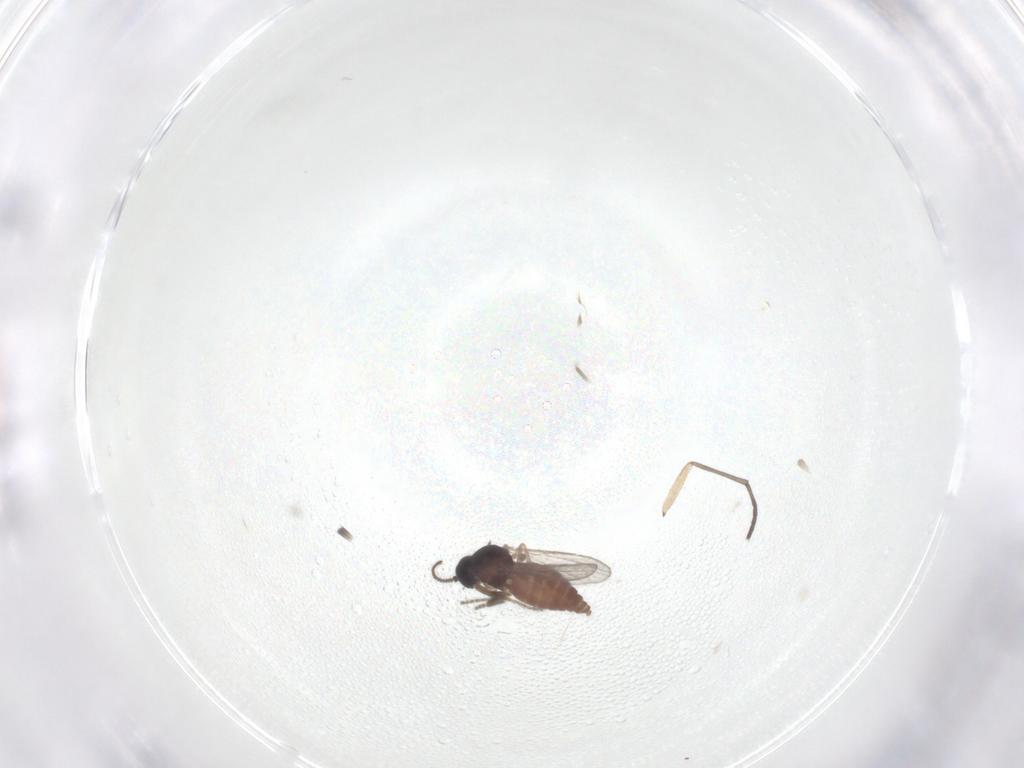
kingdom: Animalia
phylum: Arthropoda
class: Insecta
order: Diptera
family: Ceratopogonidae
